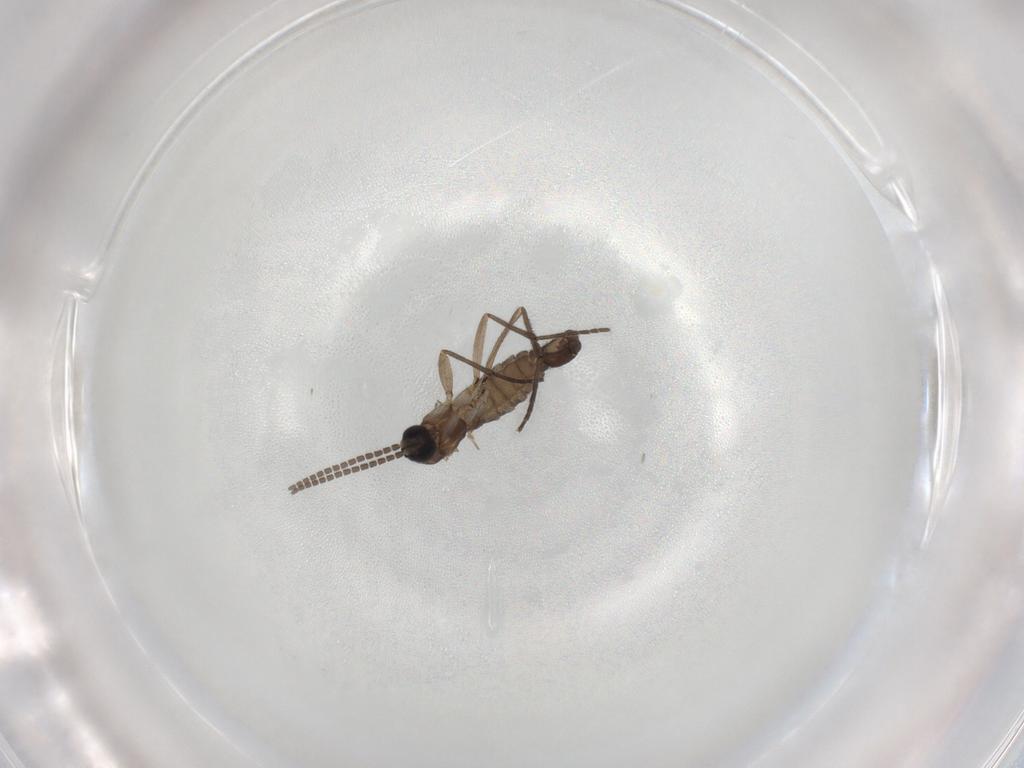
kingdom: Animalia
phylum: Arthropoda
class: Insecta
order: Diptera
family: Sciaridae
